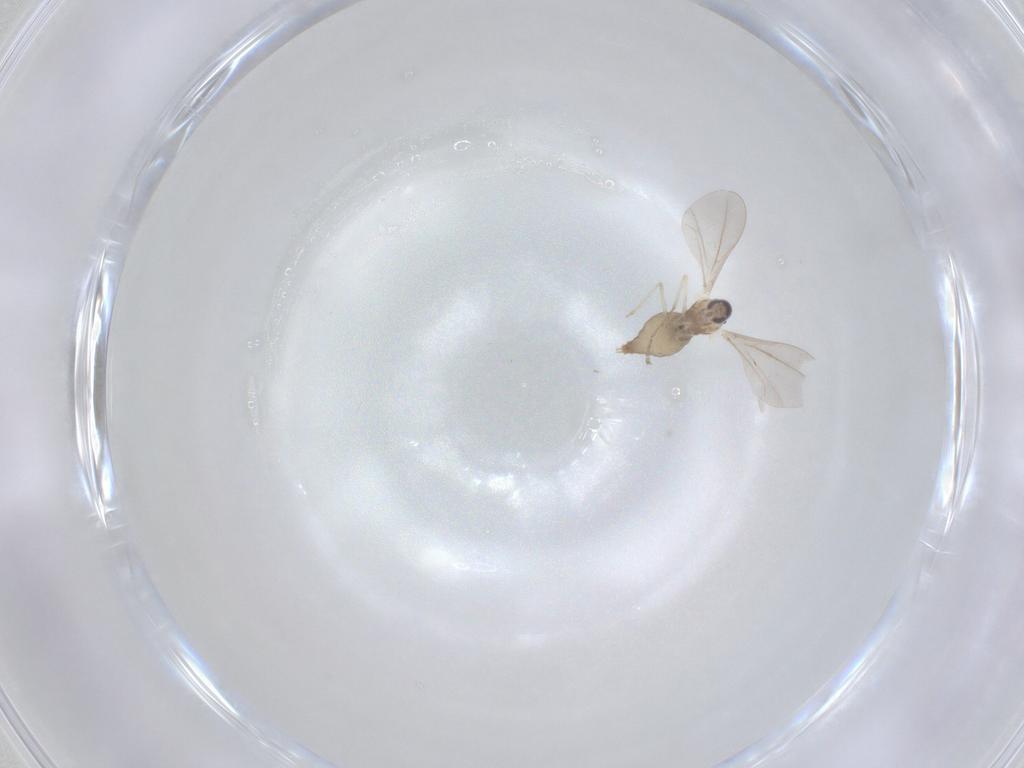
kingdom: Animalia
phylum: Arthropoda
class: Insecta
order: Diptera
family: Cecidomyiidae
